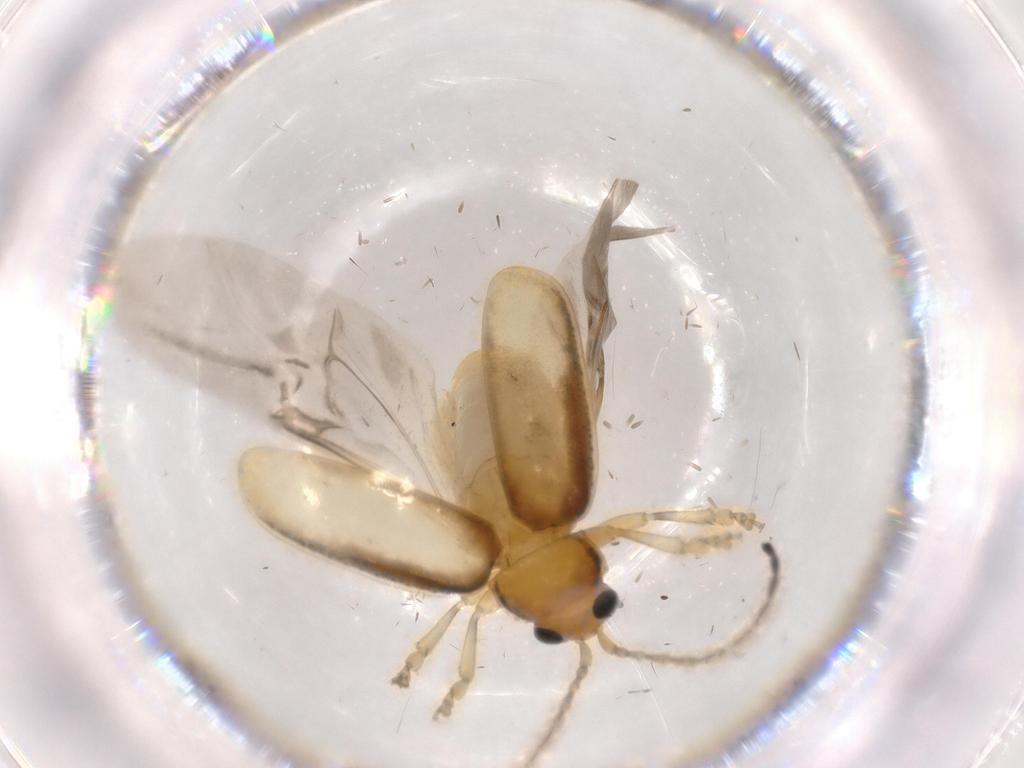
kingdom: Animalia
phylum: Arthropoda
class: Insecta
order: Coleoptera
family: Chrysomelidae
